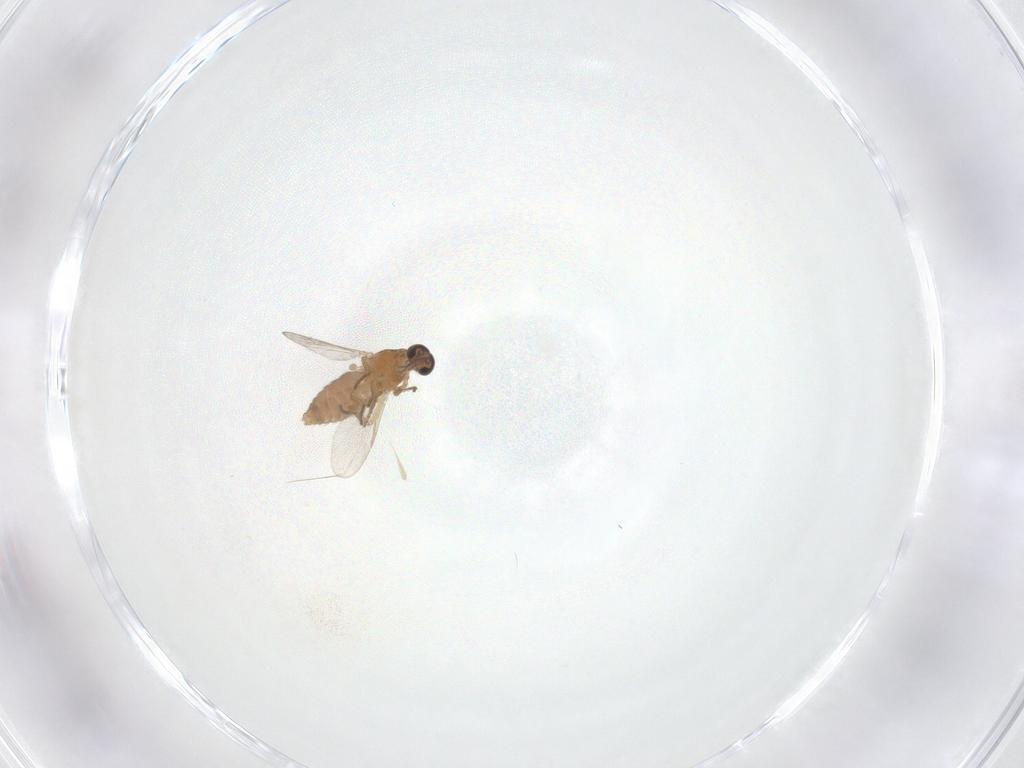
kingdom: Animalia
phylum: Arthropoda
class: Insecta
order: Diptera
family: Ceratopogonidae
